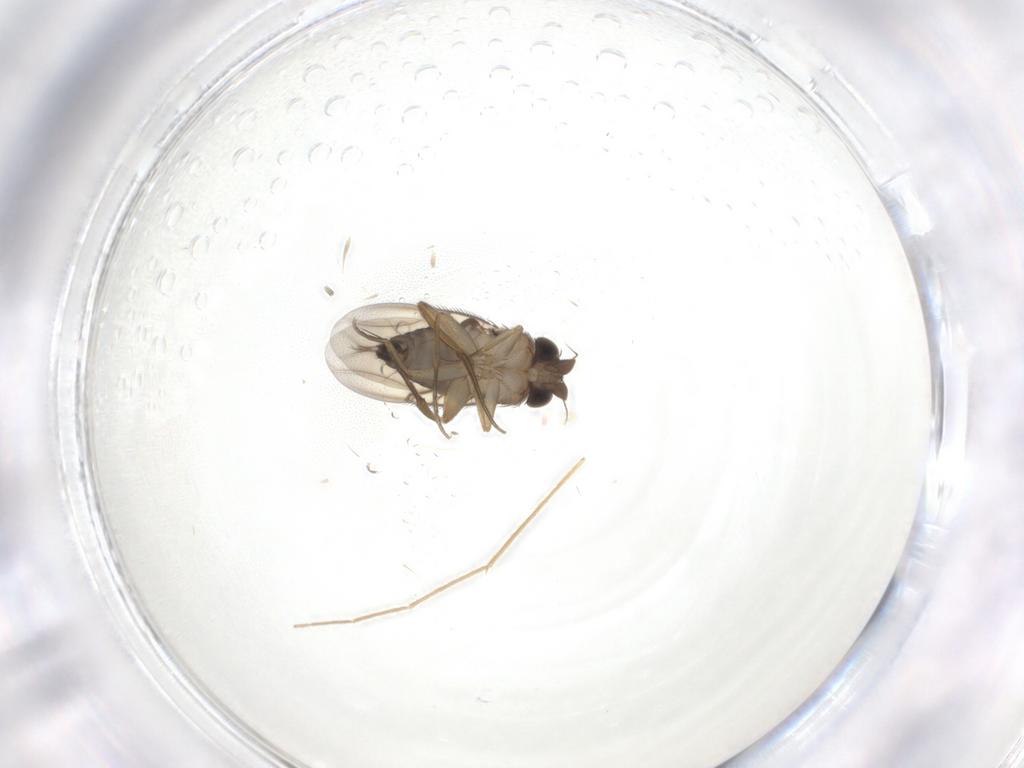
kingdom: Animalia
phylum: Arthropoda
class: Insecta
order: Diptera
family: Phoridae
